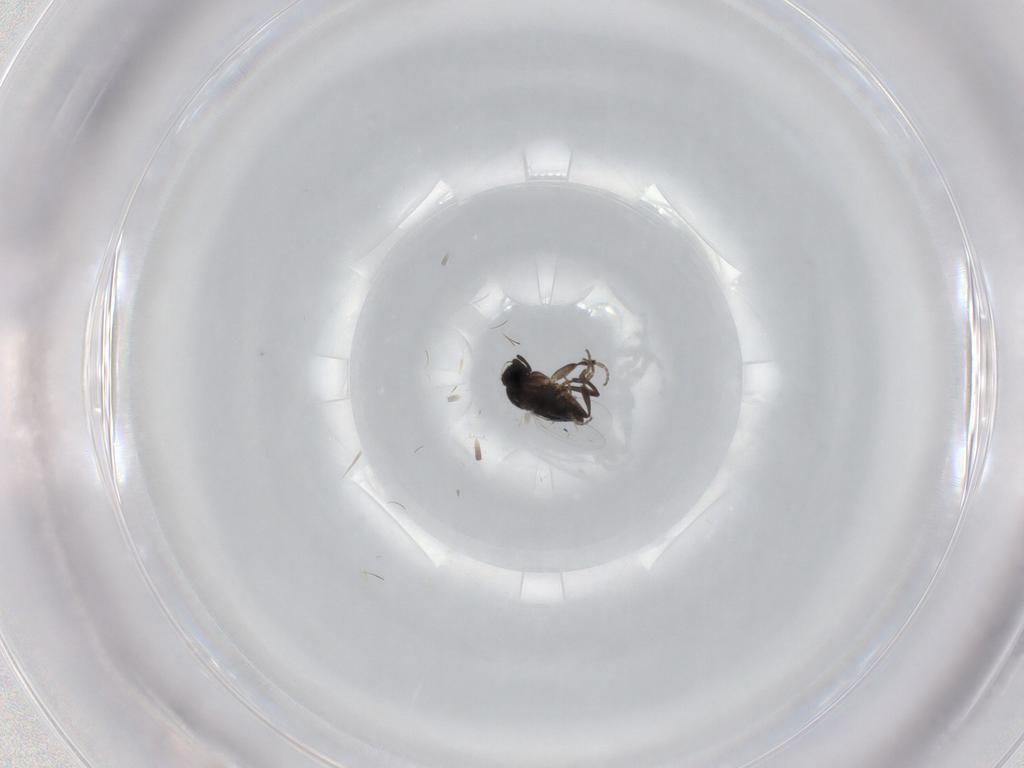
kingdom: Animalia
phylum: Arthropoda
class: Insecta
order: Diptera
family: Phoridae
